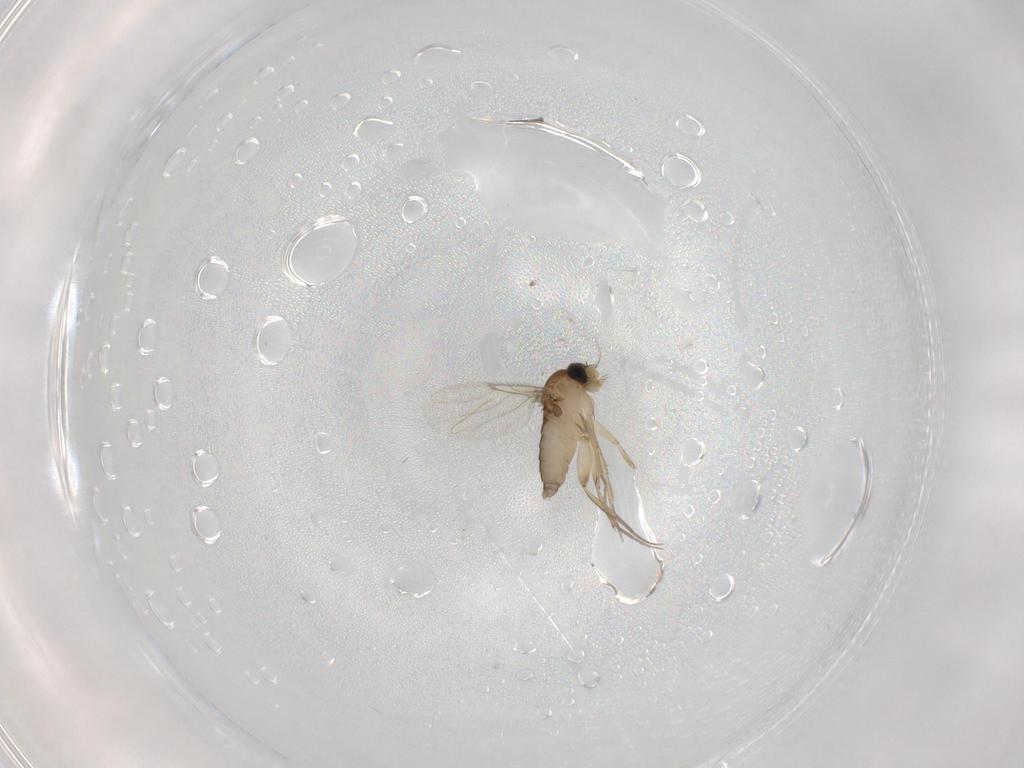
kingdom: Animalia
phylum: Arthropoda
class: Insecta
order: Diptera
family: Phoridae
